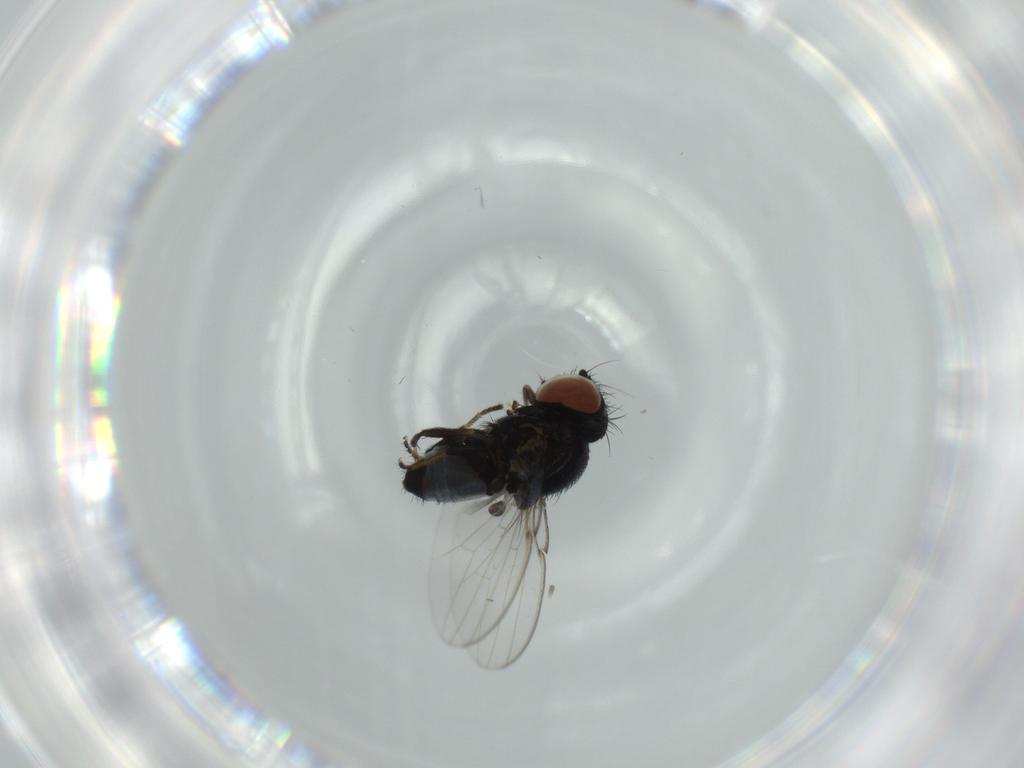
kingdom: Animalia
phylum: Arthropoda
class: Insecta
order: Diptera
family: Milichiidae
